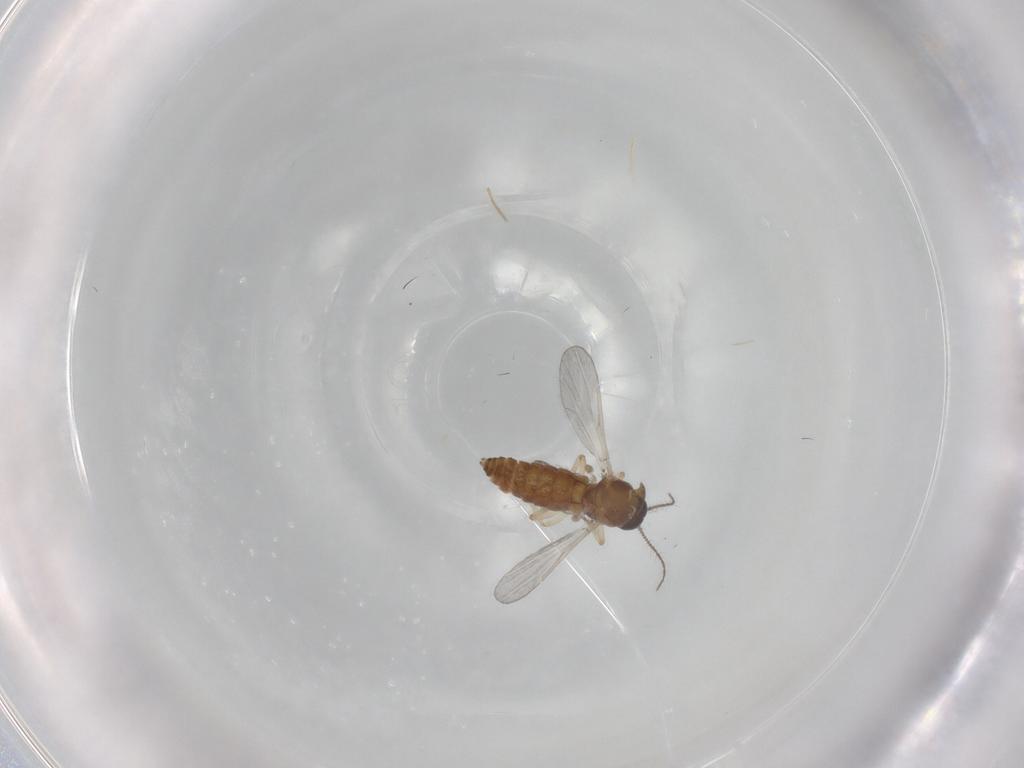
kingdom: Animalia
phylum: Arthropoda
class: Insecta
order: Diptera
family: Ceratopogonidae
